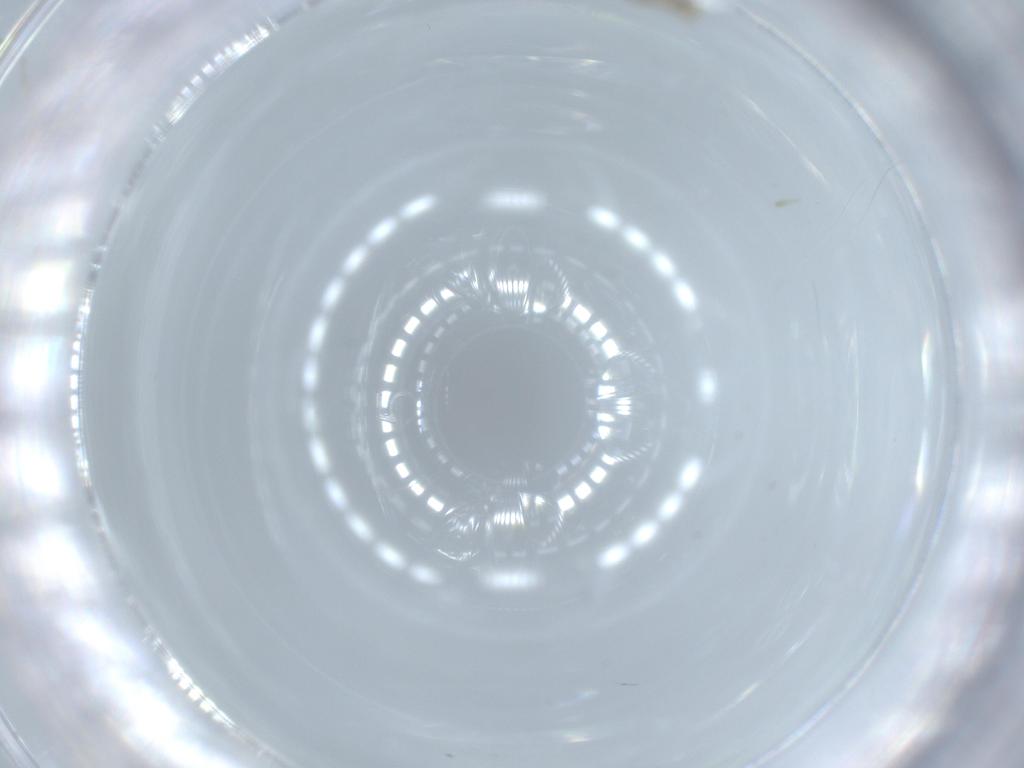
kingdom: Animalia
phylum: Arthropoda
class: Insecta
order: Diptera
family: Cecidomyiidae
